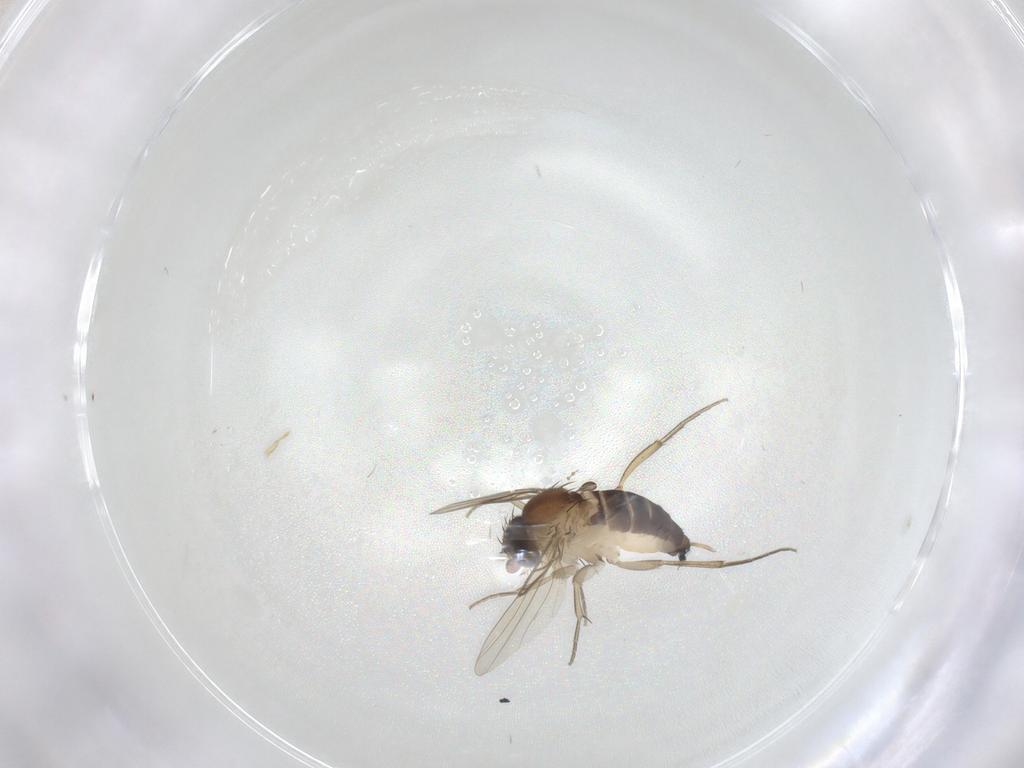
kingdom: Animalia
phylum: Arthropoda
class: Insecta
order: Diptera
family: Phoridae
